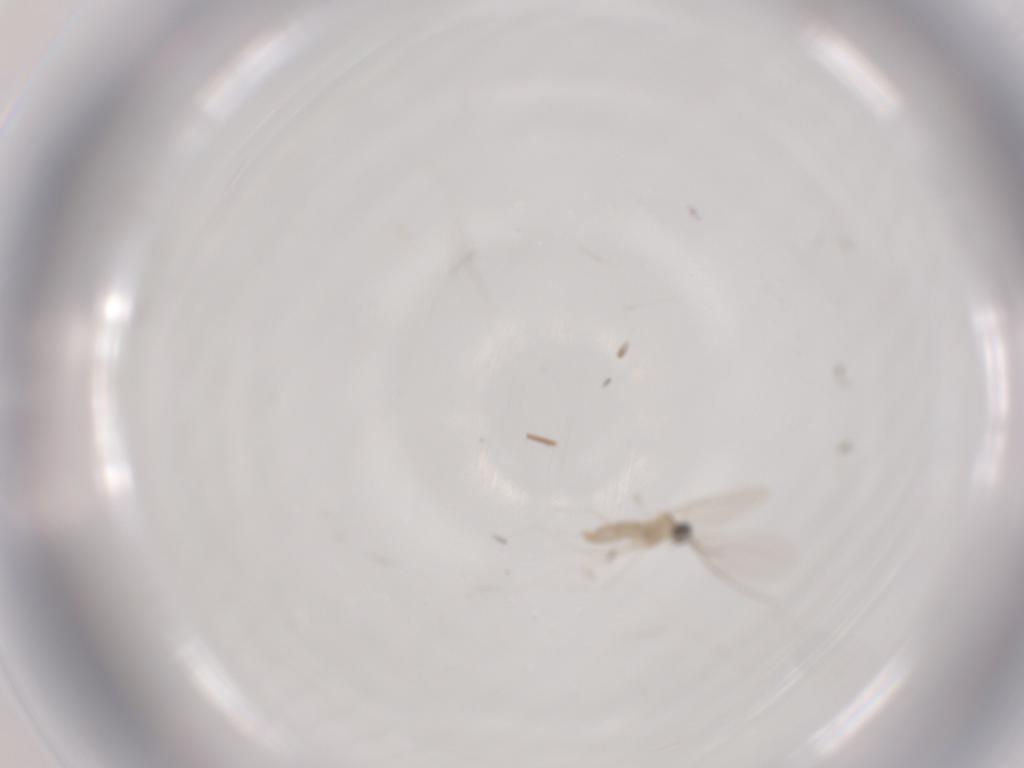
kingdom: Animalia
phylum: Arthropoda
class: Insecta
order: Diptera
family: Cecidomyiidae
